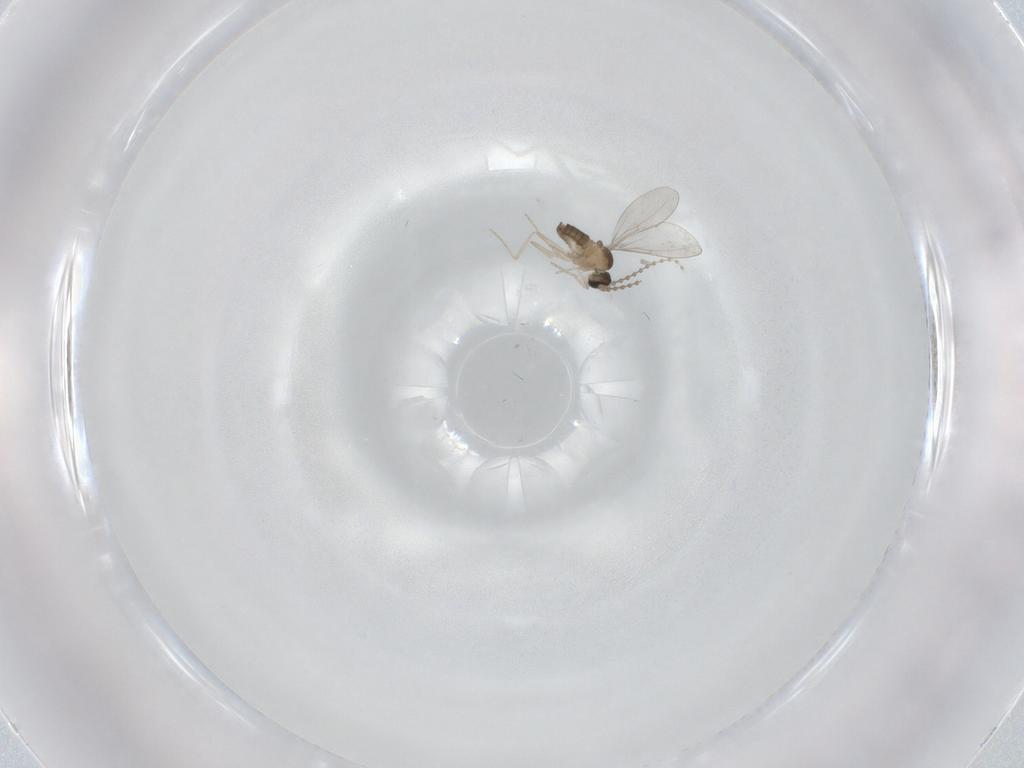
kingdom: Animalia
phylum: Arthropoda
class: Insecta
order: Diptera
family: Cecidomyiidae
